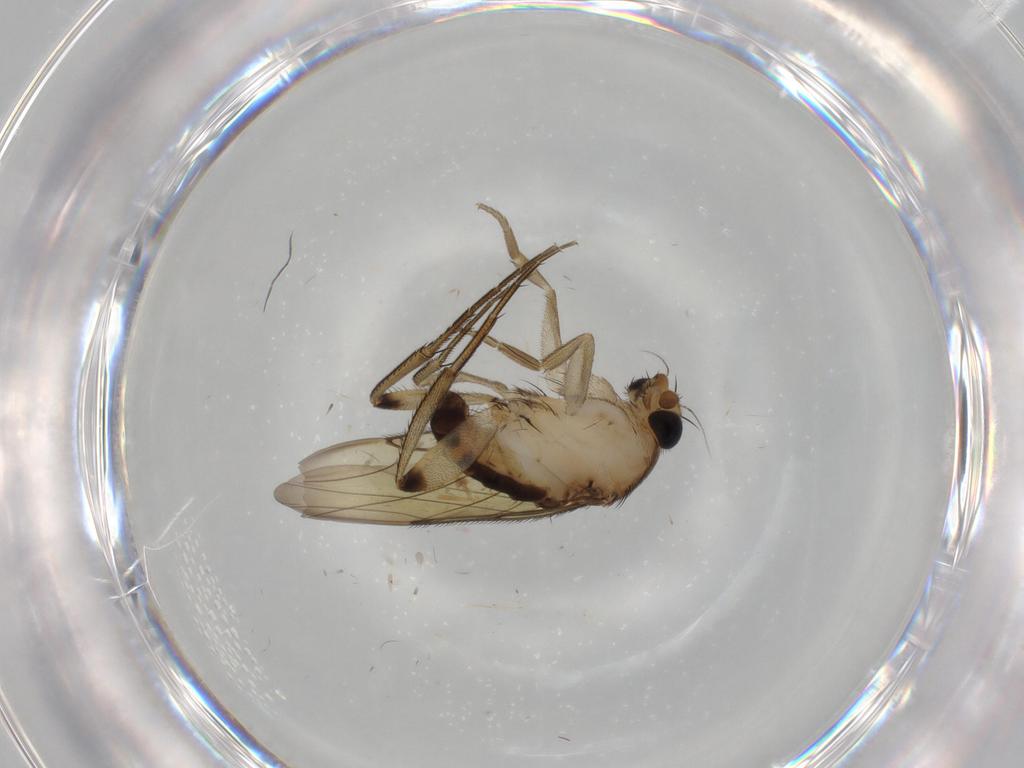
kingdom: Animalia
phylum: Arthropoda
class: Insecta
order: Diptera
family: Phoridae
